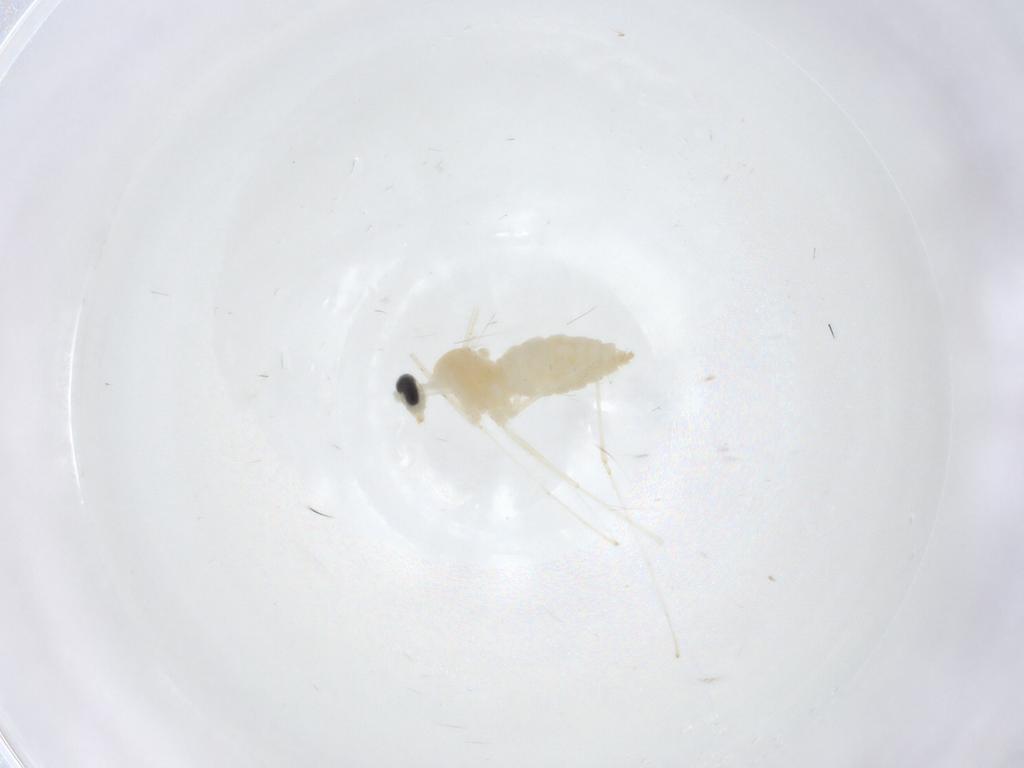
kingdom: Animalia
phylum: Arthropoda
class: Insecta
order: Diptera
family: Cecidomyiidae
